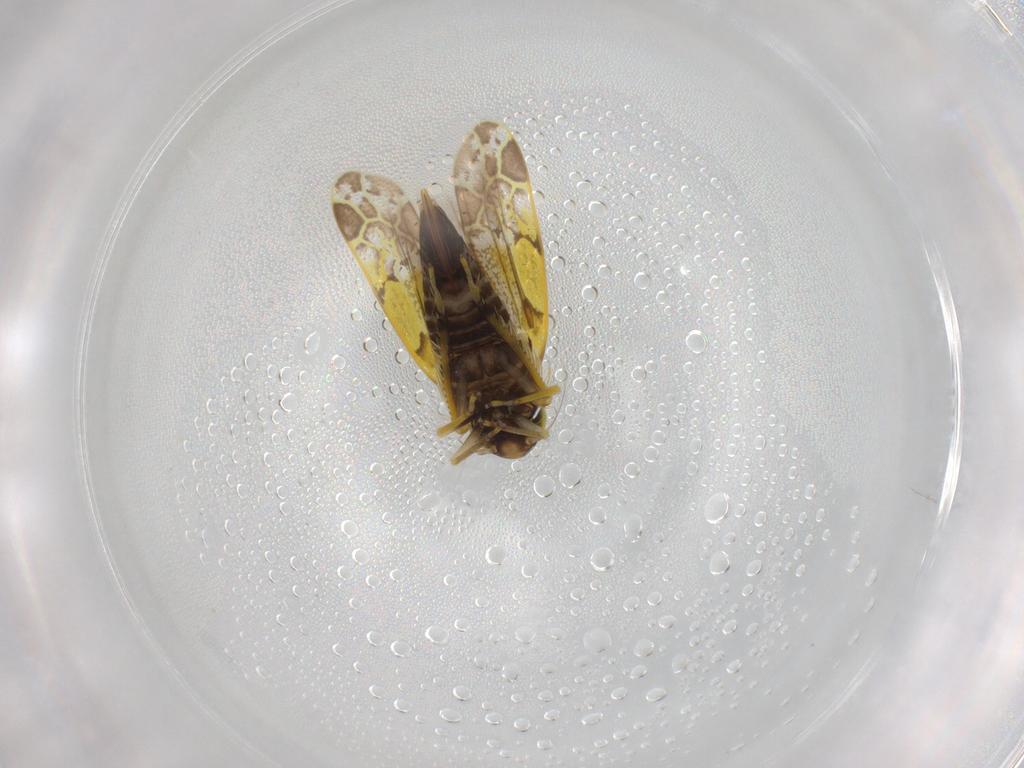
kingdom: Animalia
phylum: Arthropoda
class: Insecta
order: Hemiptera
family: Cicadellidae
